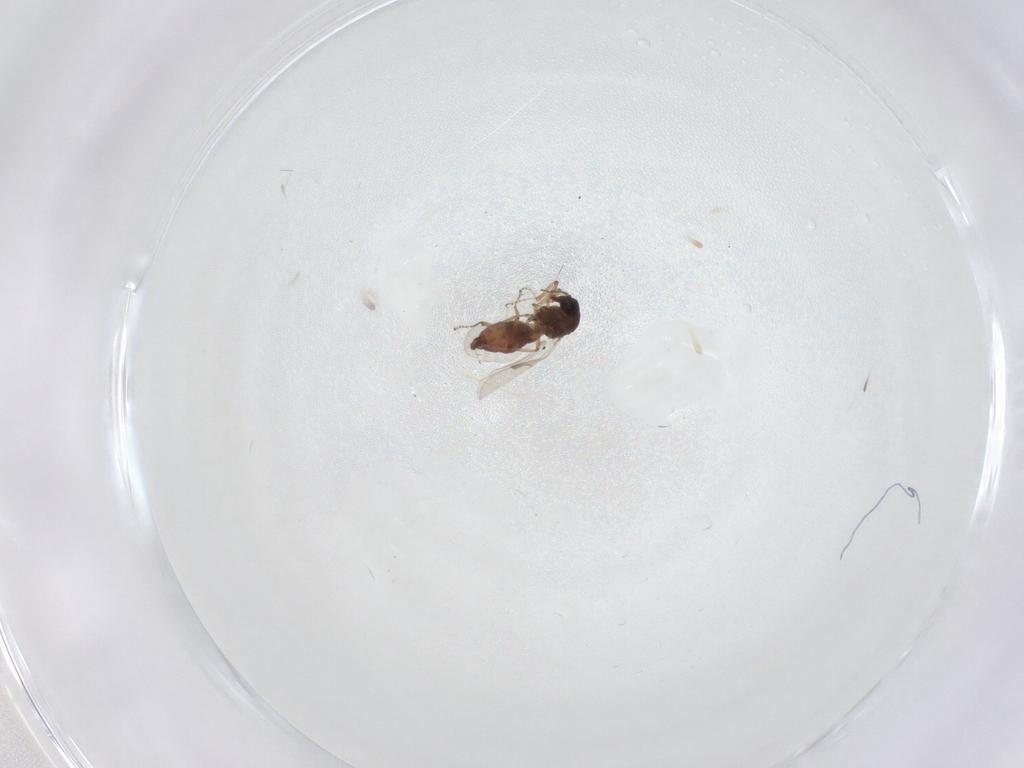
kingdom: Animalia
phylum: Arthropoda
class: Insecta
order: Diptera
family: Ceratopogonidae
